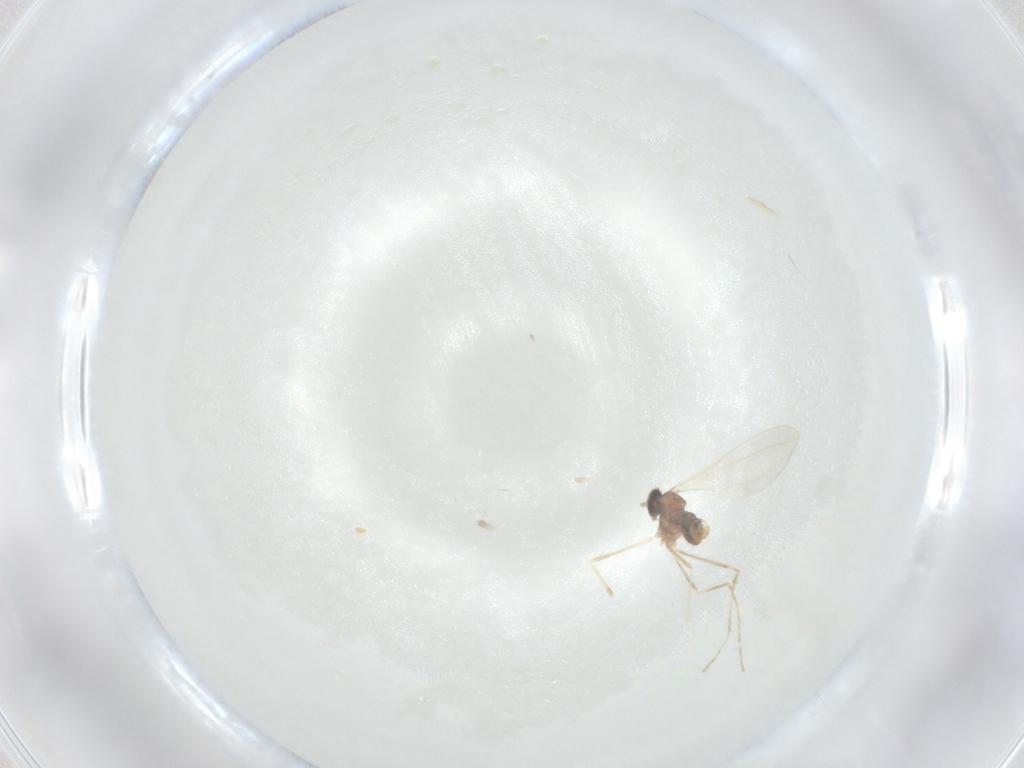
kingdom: Animalia
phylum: Arthropoda
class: Insecta
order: Diptera
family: Cecidomyiidae
